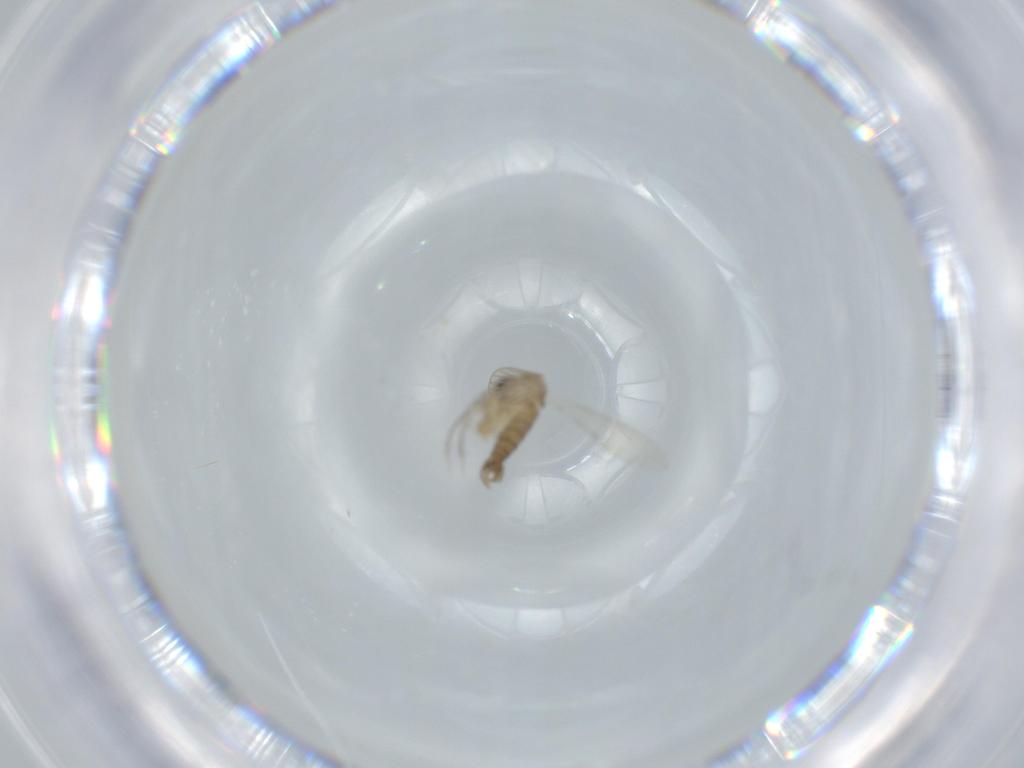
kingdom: Animalia
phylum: Arthropoda
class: Insecta
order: Diptera
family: Psychodidae
